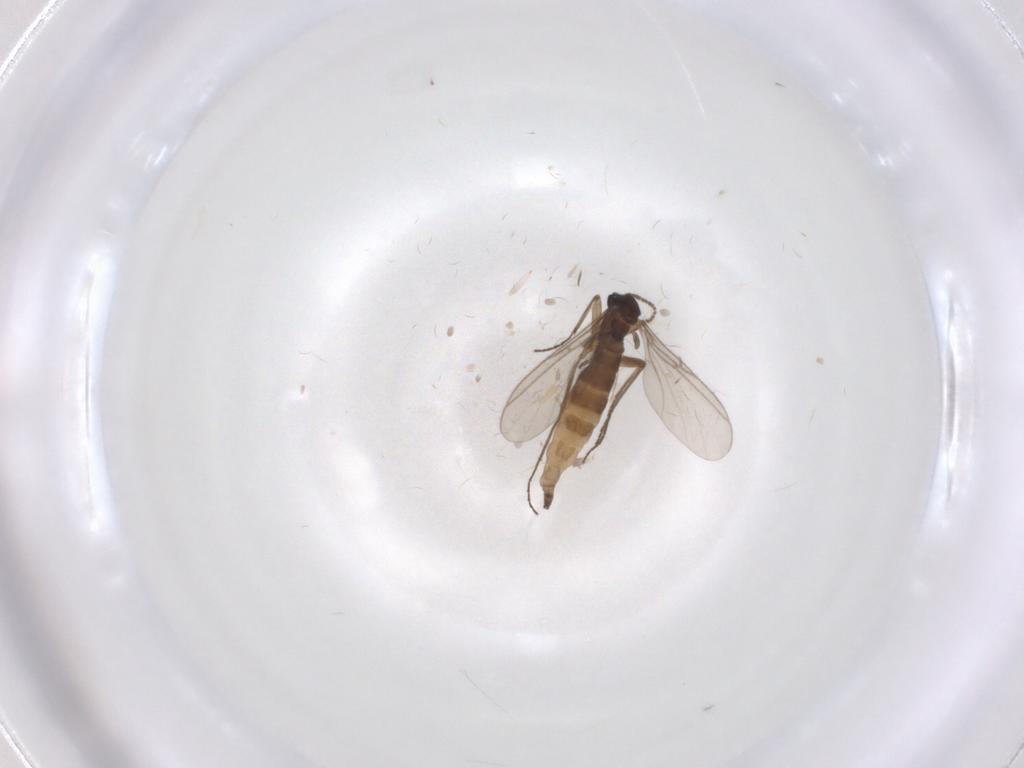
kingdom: Animalia
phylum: Arthropoda
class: Insecta
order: Diptera
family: Sciaridae
